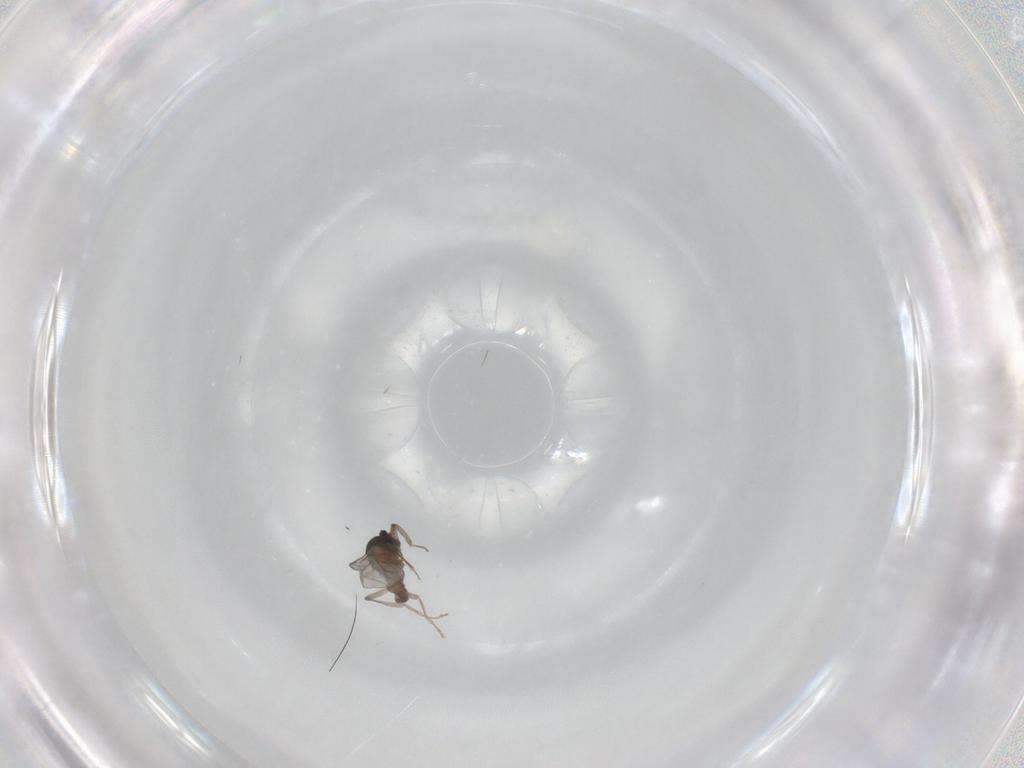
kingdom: Animalia
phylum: Arthropoda
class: Insecta
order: Diptera
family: Cecidomyiidae
